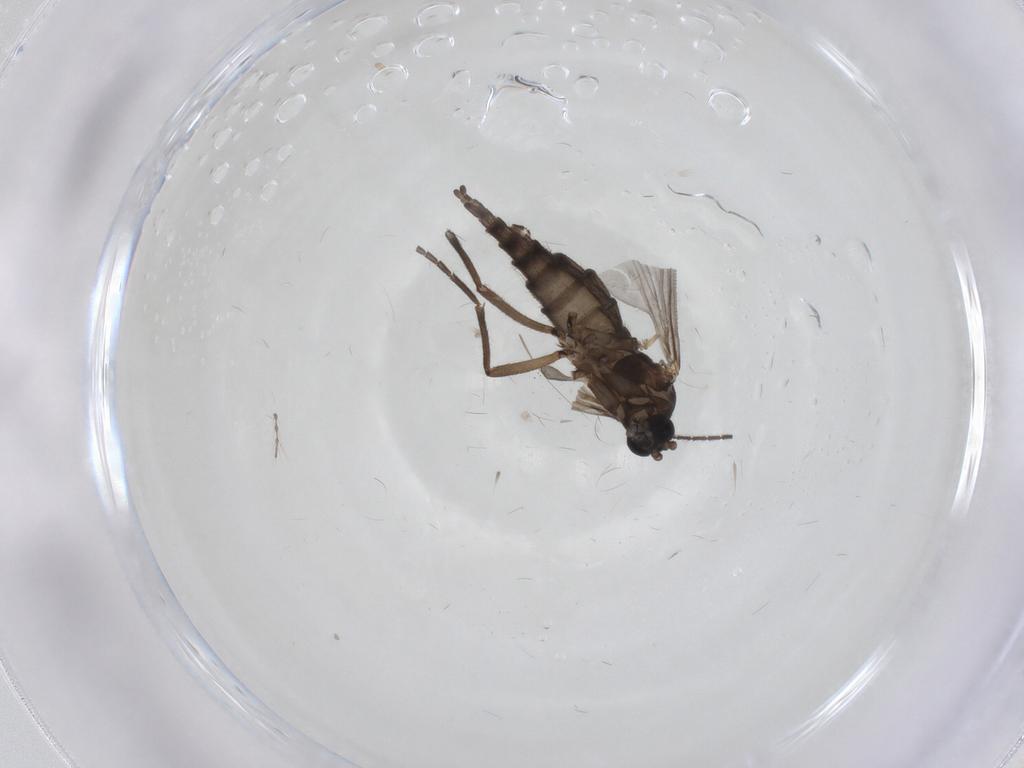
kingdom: Animalia
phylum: Arthropoda
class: Insecta
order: Diptera
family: Sciaridae
